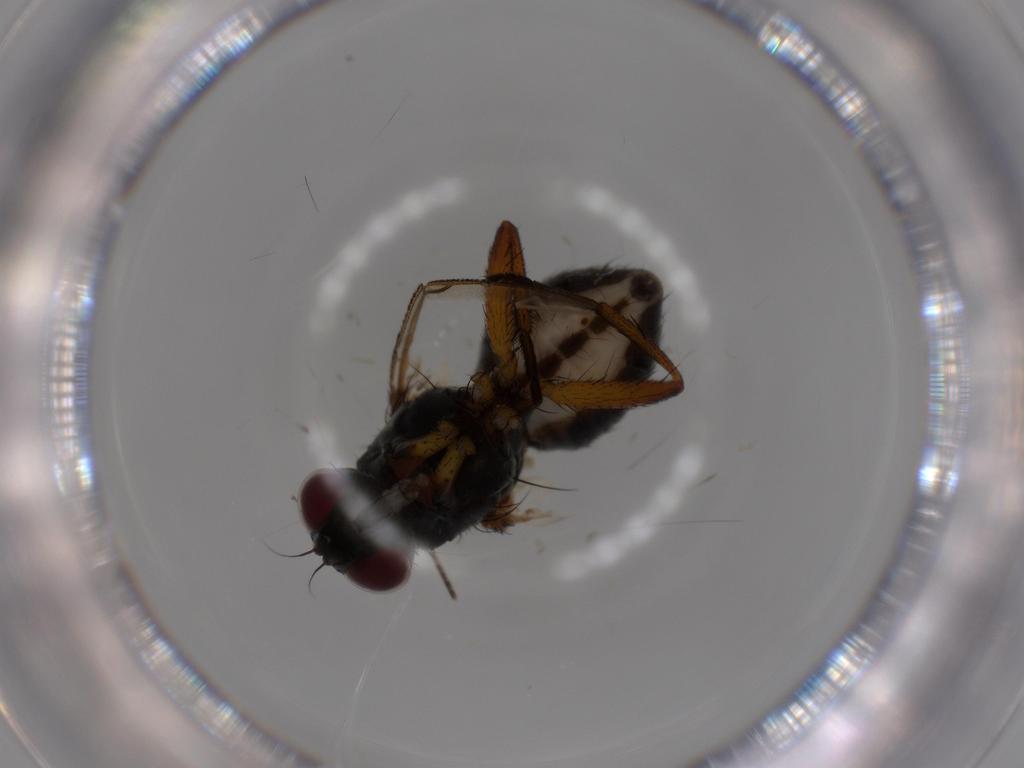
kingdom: Animalia
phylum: Arthropoda
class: Insecta
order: Diptera
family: Muscidae
